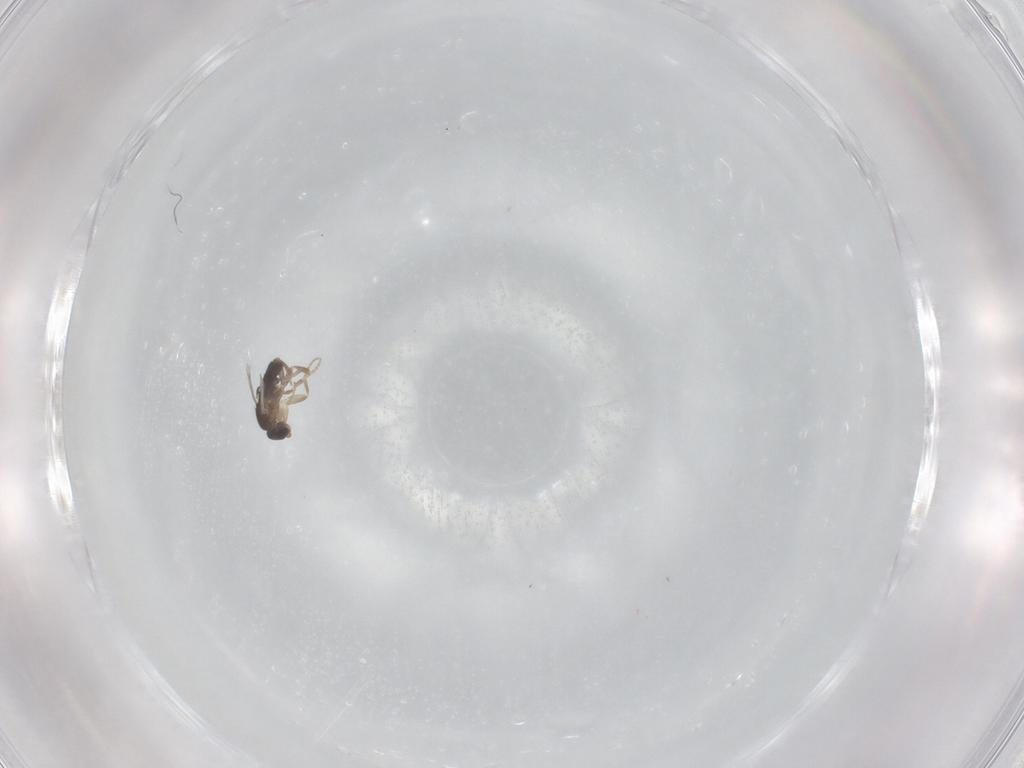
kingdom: Animalia
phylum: Arthropoda
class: Insecta
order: Diptera
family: Phoridae
